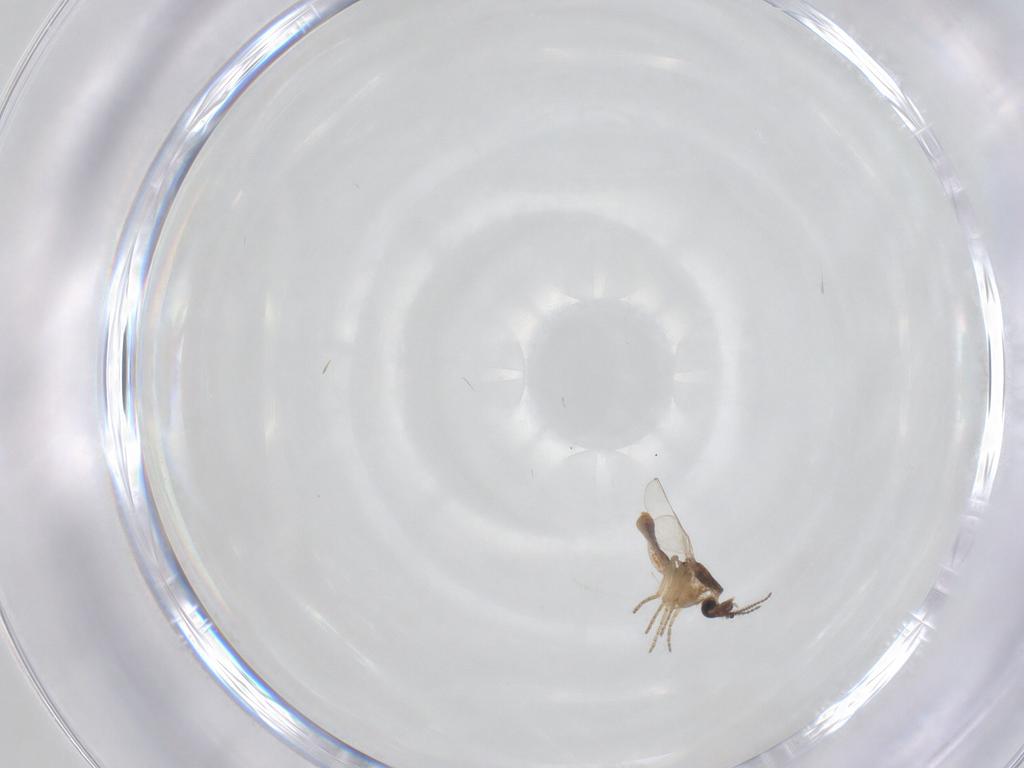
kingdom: Animalia
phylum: Arthropoda
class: Insecta
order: Diptera
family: Ceratopogonidae
